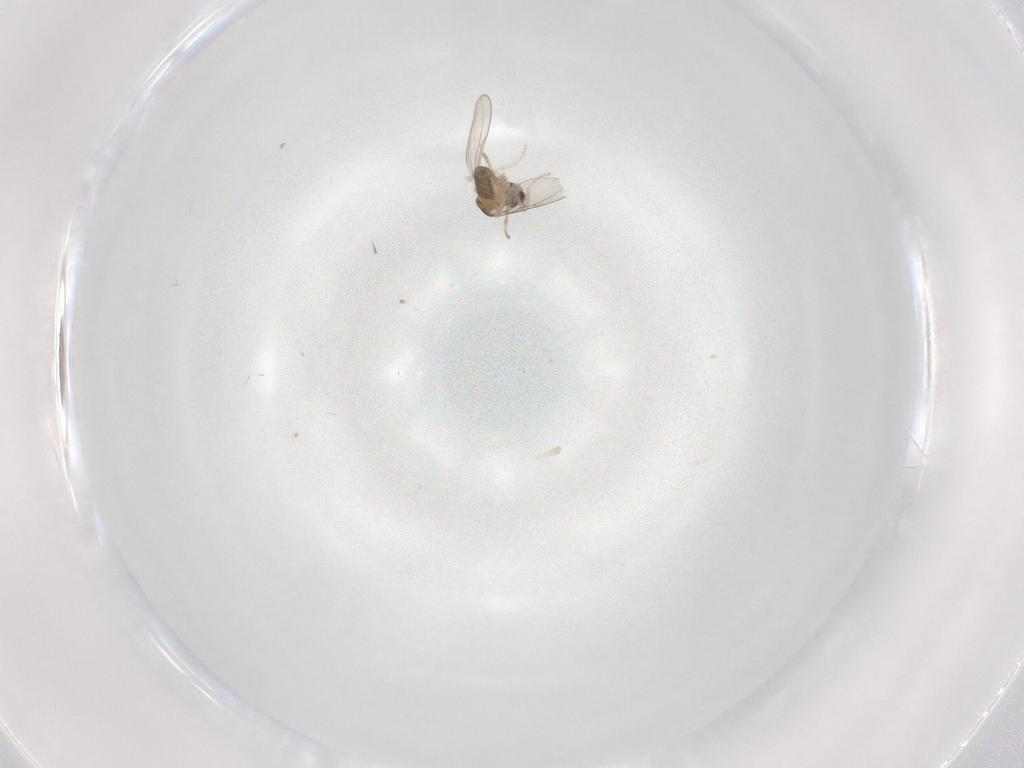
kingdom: Animalia
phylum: Arthropoda
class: Insecta
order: Diptera
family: Cecidomyiidae
